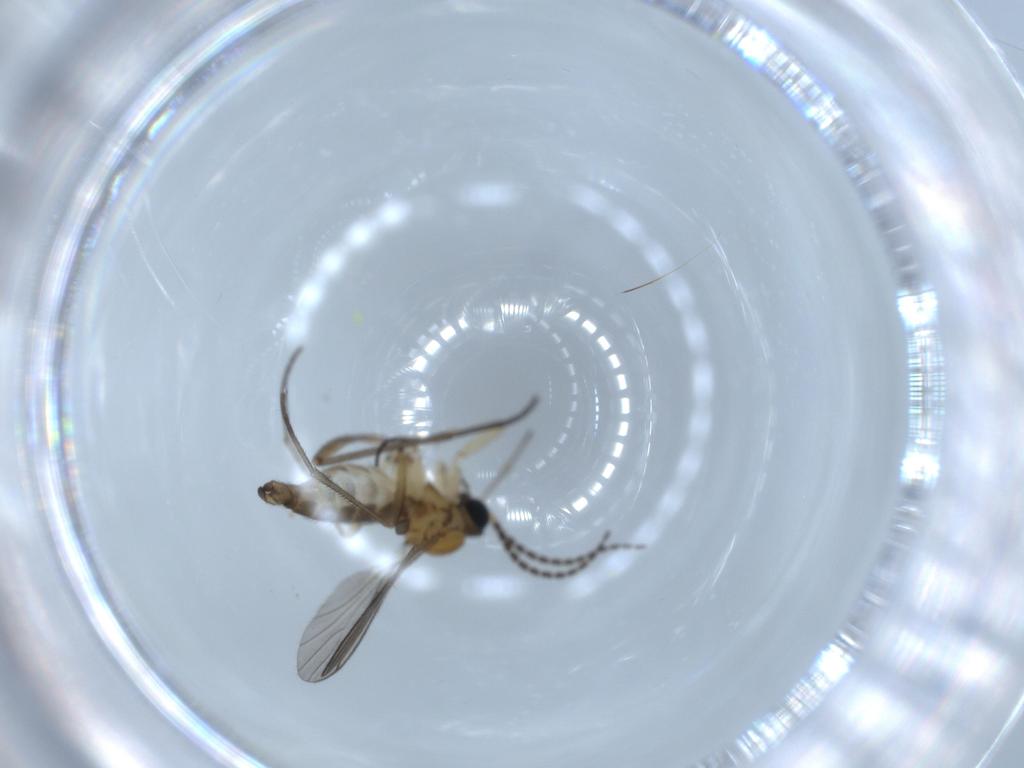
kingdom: Animalia
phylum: Arthropoda
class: Insecta
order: Diptera
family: Sciaridae
